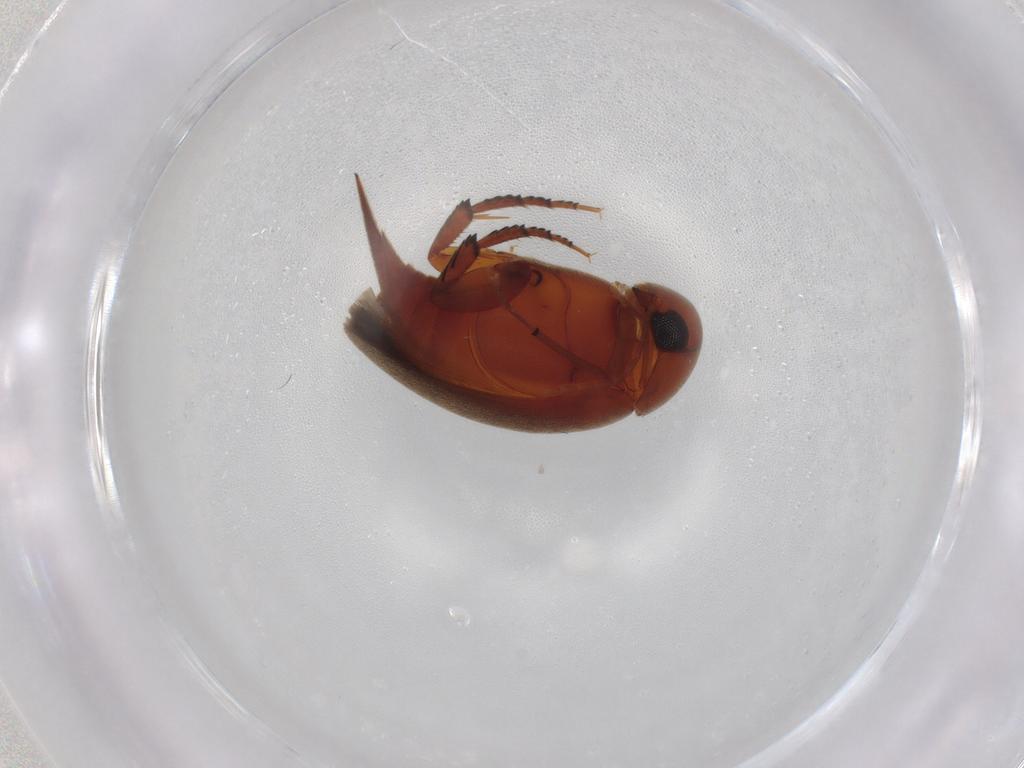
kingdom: Animalia
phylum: Arthropoda
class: Insecta
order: Coleoptera
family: Mordellidae
